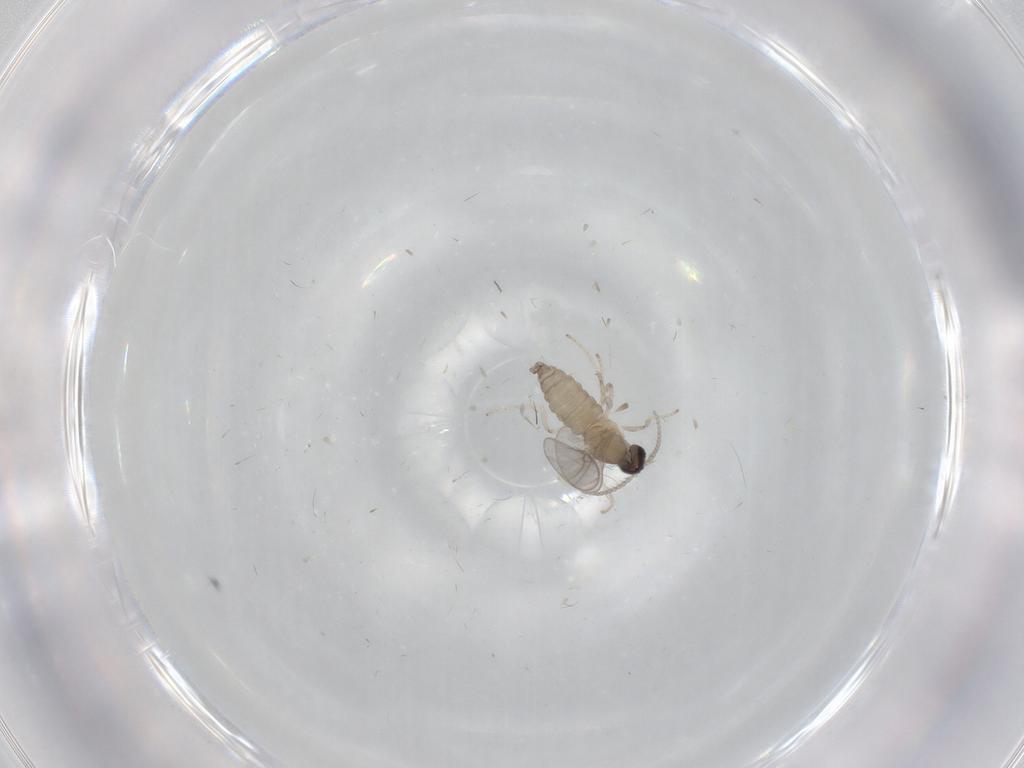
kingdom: Animalia
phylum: Arthropoda
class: Insecta
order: Diptera
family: Cecidomyiidae
